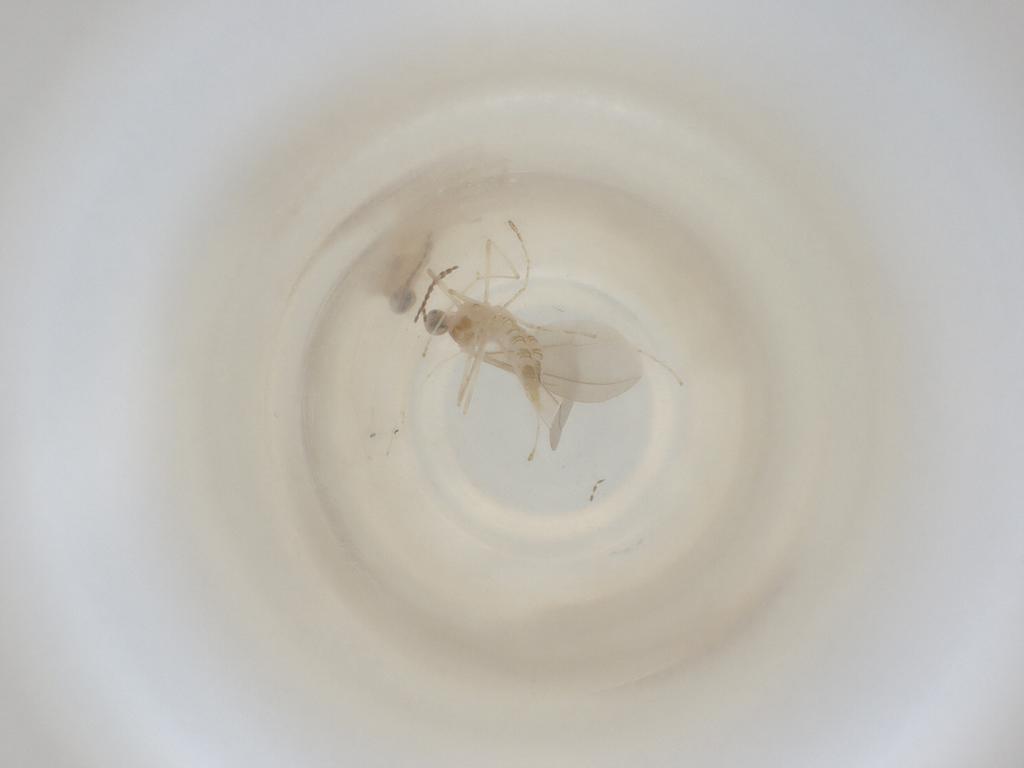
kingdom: Animalia
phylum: Arthropoda
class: Insecta
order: Diptera
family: Cecidomyiidae
